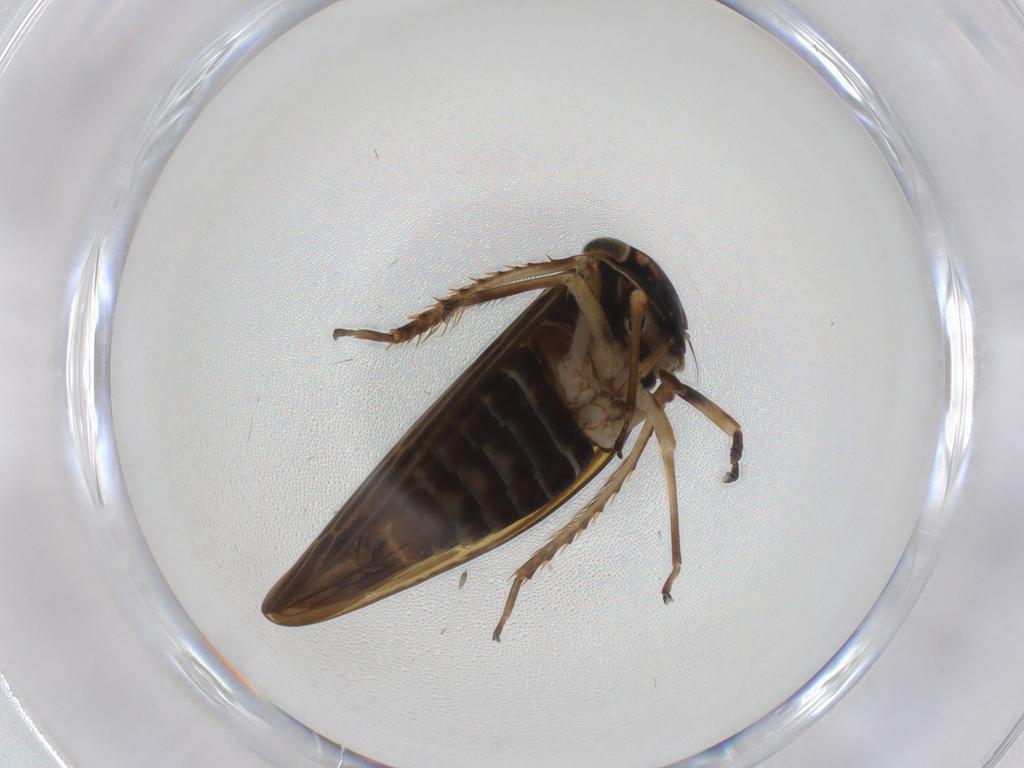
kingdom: Animalia
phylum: Arthropoda
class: Insecta
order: Hemiptera
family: Cicadellidae
